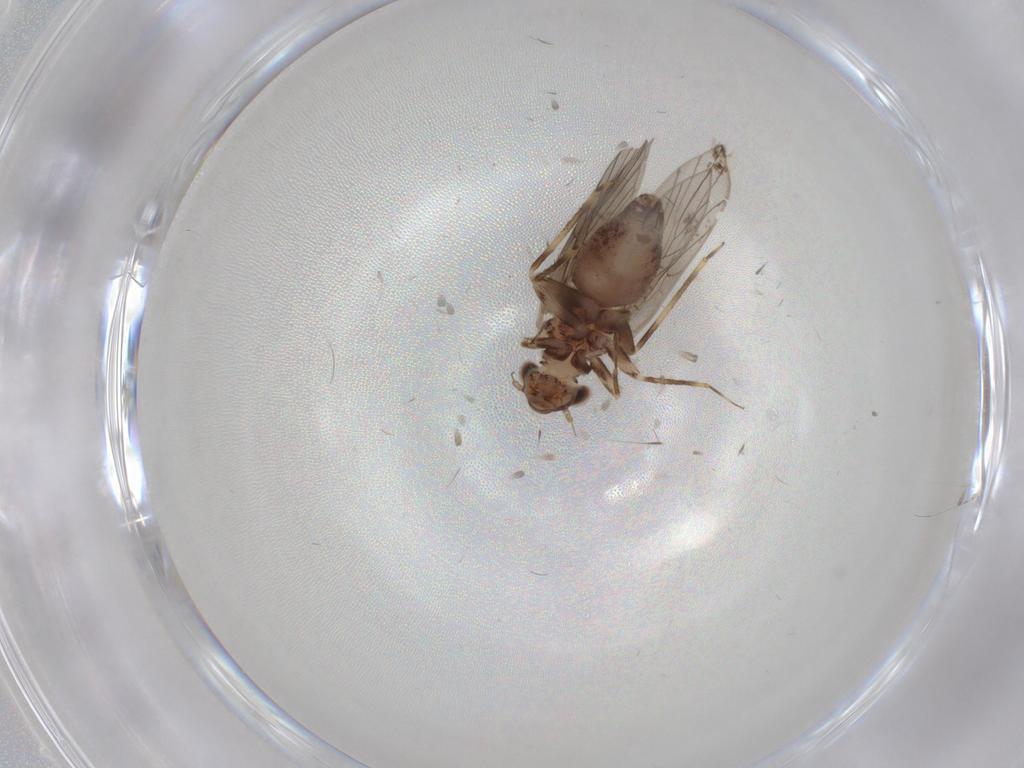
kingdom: Animalia
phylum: Arthropoda
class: Insecta
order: Psocodea
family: Lepidopsocidae
